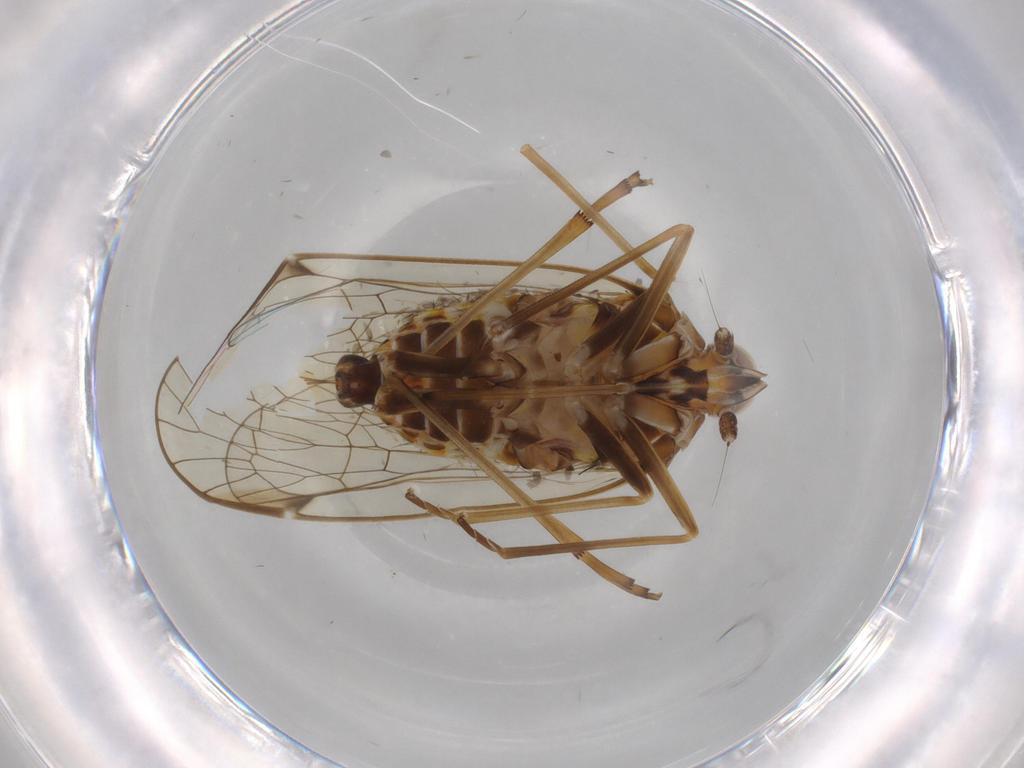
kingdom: Animalia
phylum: Arthropoda
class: Insecta
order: Hemiptera
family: Kinnaridae
